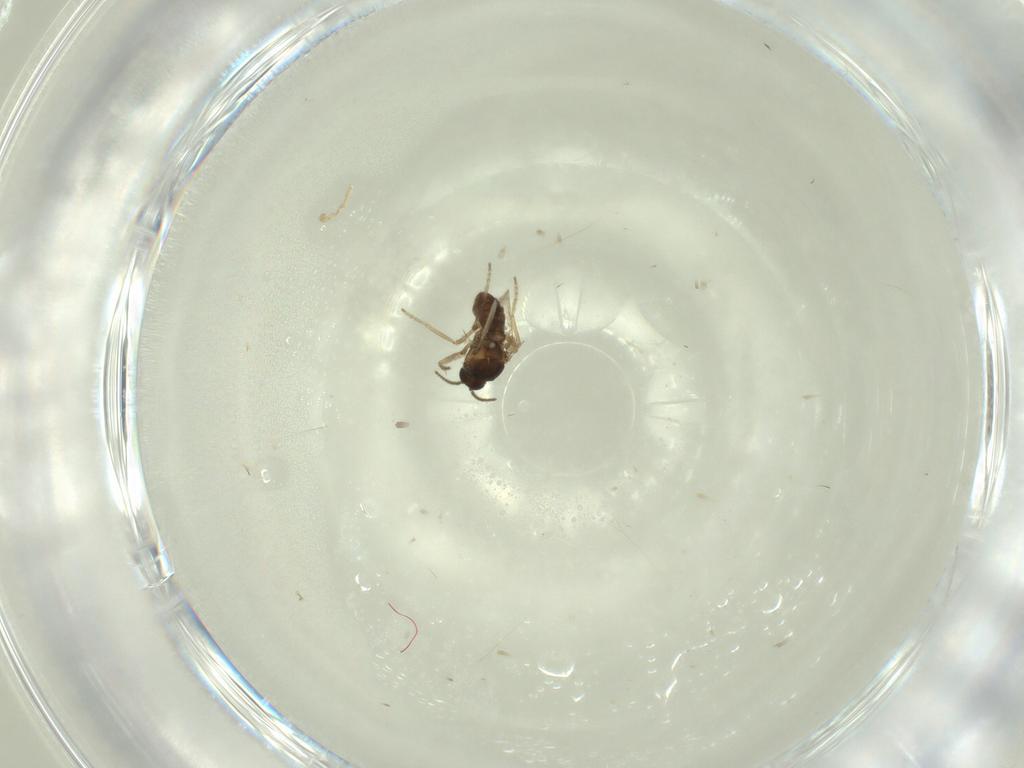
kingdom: Animalia
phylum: Arthropoda
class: Insecta
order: Diptera
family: Ceratopogonidae
